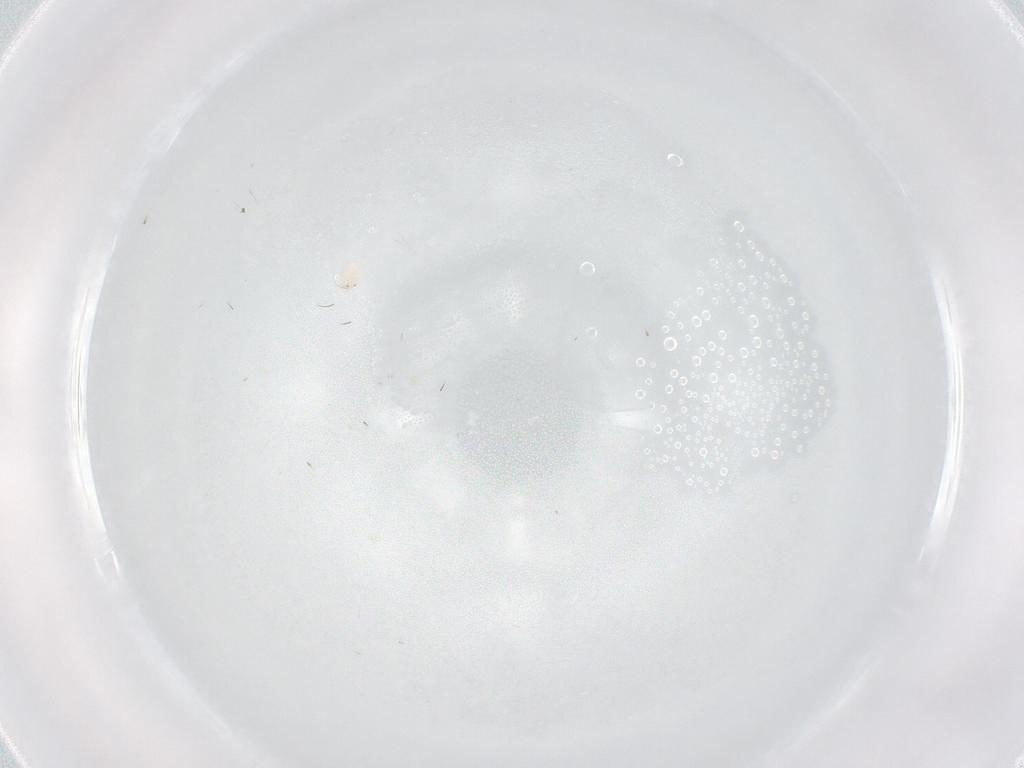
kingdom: Animalia
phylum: Arthropoda
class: Arachnida
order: Trombidiformes
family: Hygrobatidae
